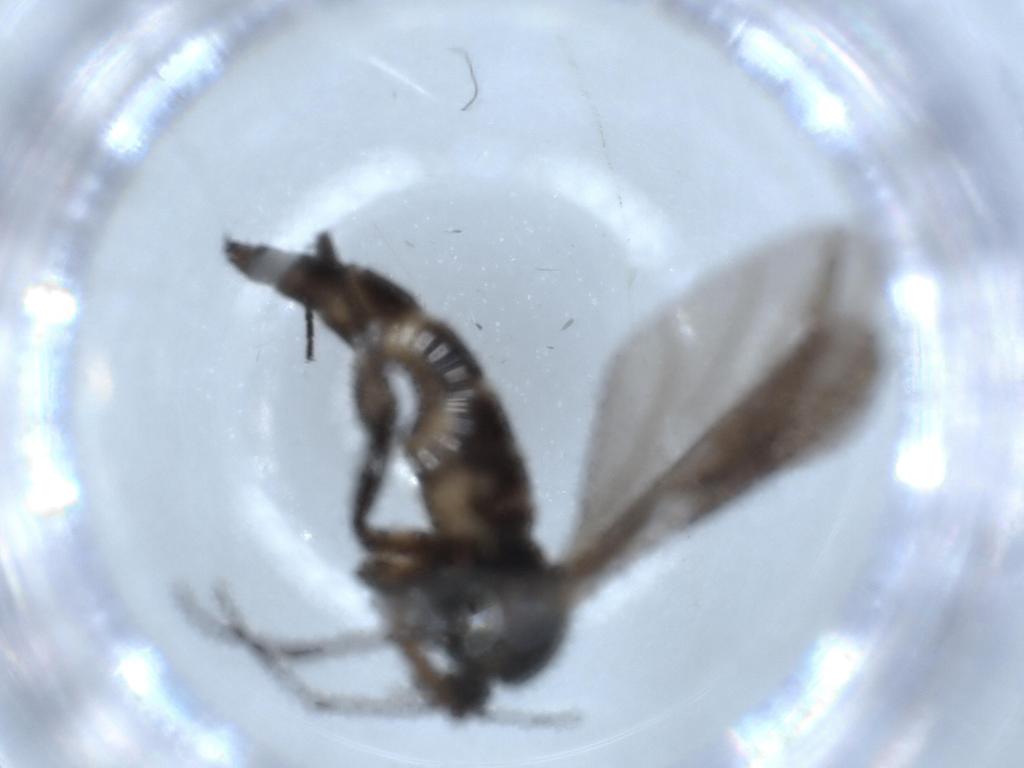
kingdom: Animalia
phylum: Arthropoda
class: Insecta
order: Diptera
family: Sciaridae
